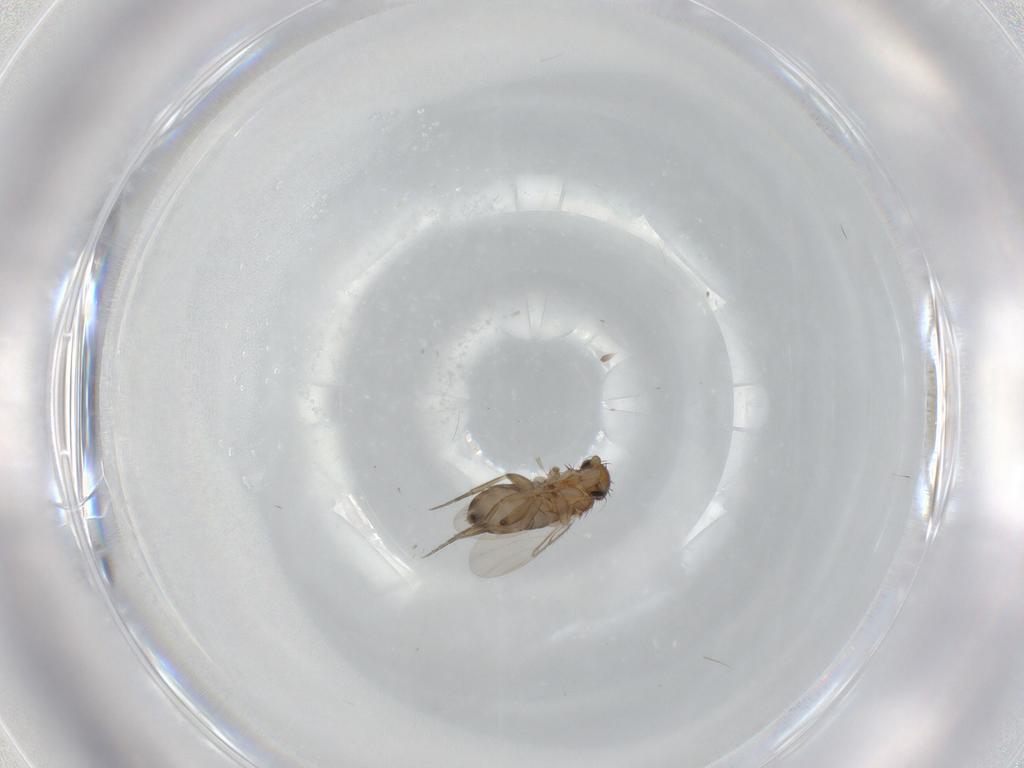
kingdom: Animalia
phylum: Arthropoda
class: Insecta
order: Diptera
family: Phoridae
